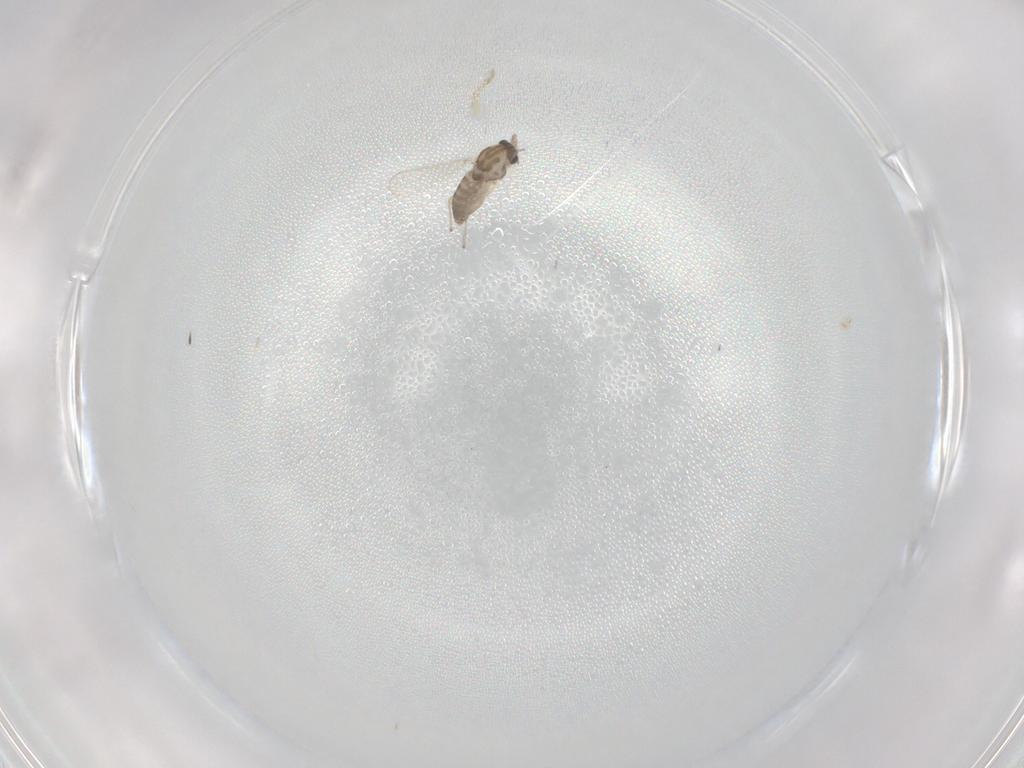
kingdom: Animalia
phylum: Arthropoda
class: Insecta
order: Diptera
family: Chironomidae
